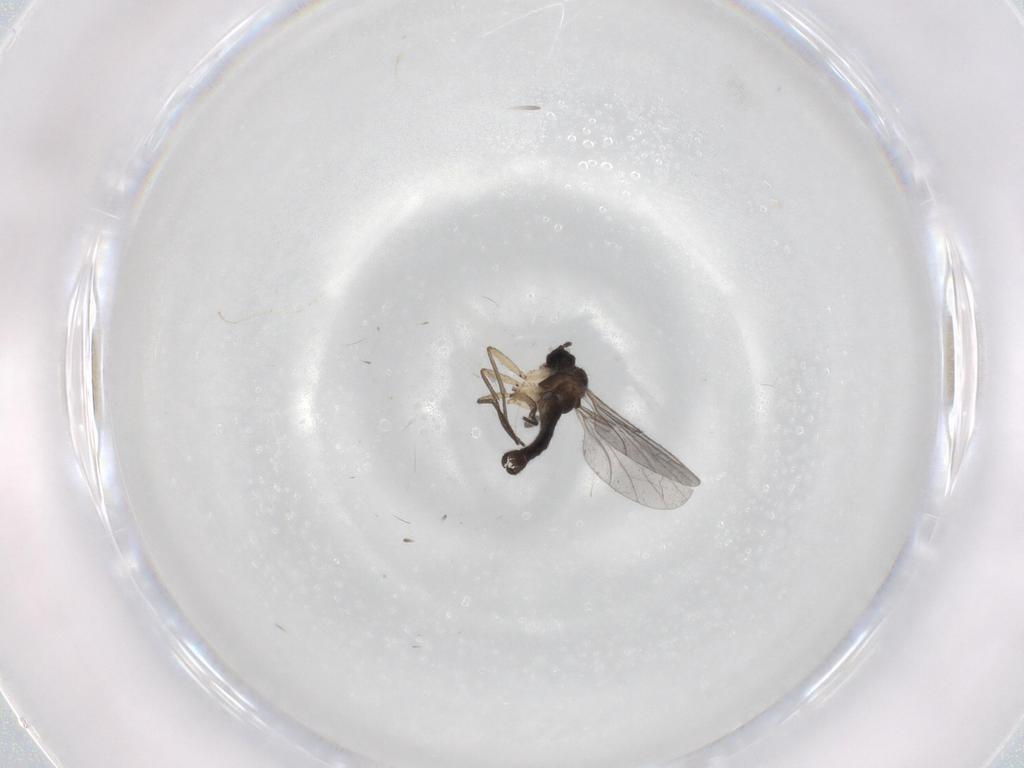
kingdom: Animalia
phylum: Arthropoda
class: Insecta
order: Diptera
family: Sciaridae
